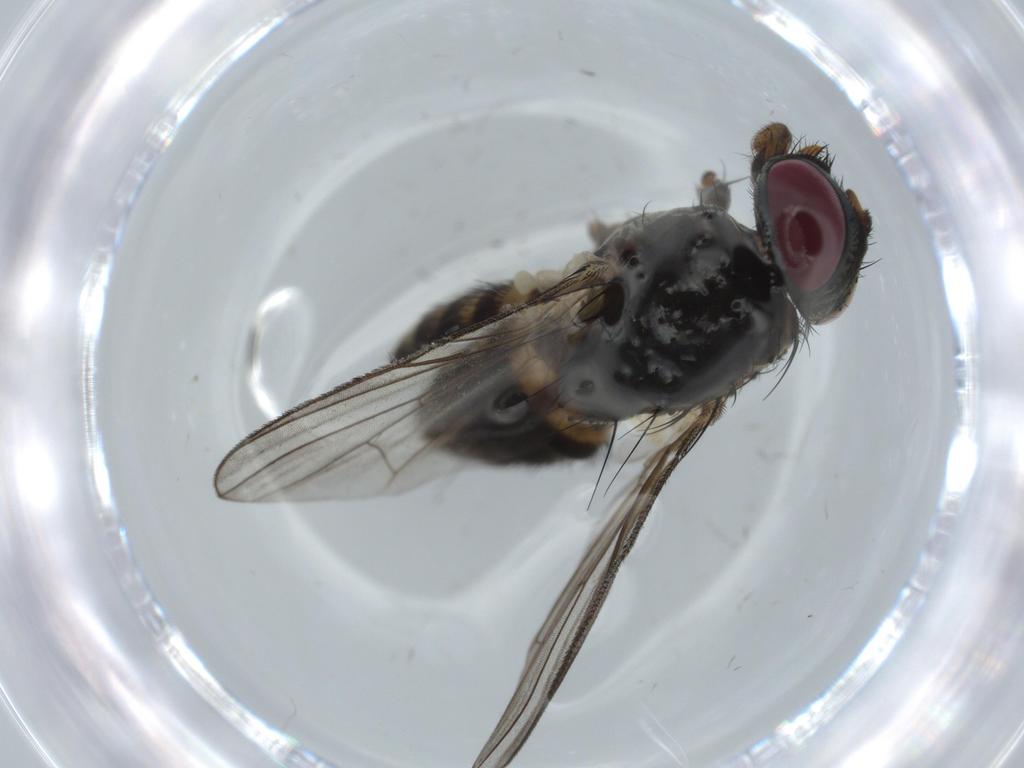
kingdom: Animalia
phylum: Arthropoda
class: Insecta
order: Diptera
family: Fannia
